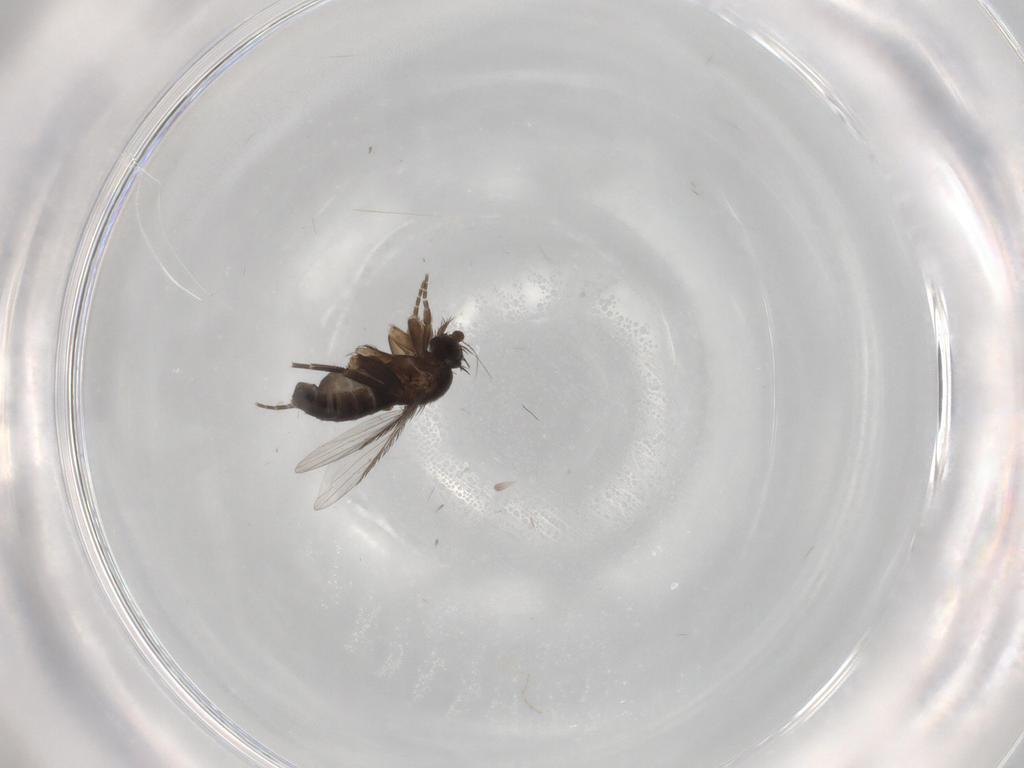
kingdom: Animalia
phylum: Arthropoda
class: Insecta
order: Diptera
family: Phoridae
